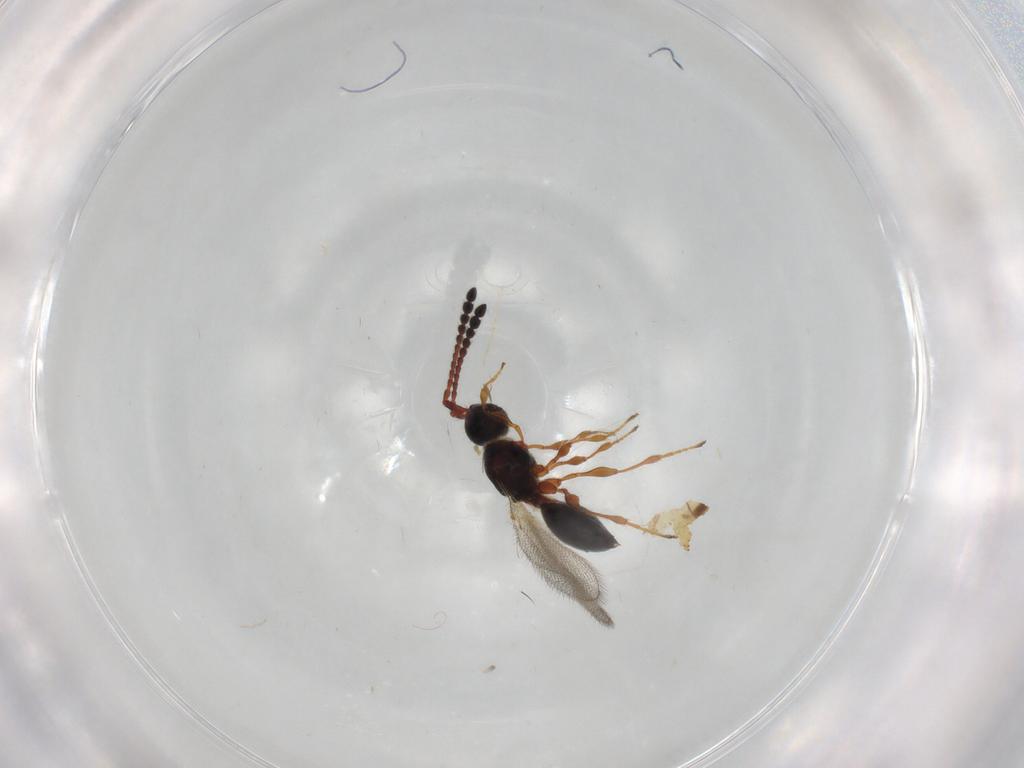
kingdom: Animalia
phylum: Arthropoda
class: Insecta
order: Hymenoptera
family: Diapriidae
